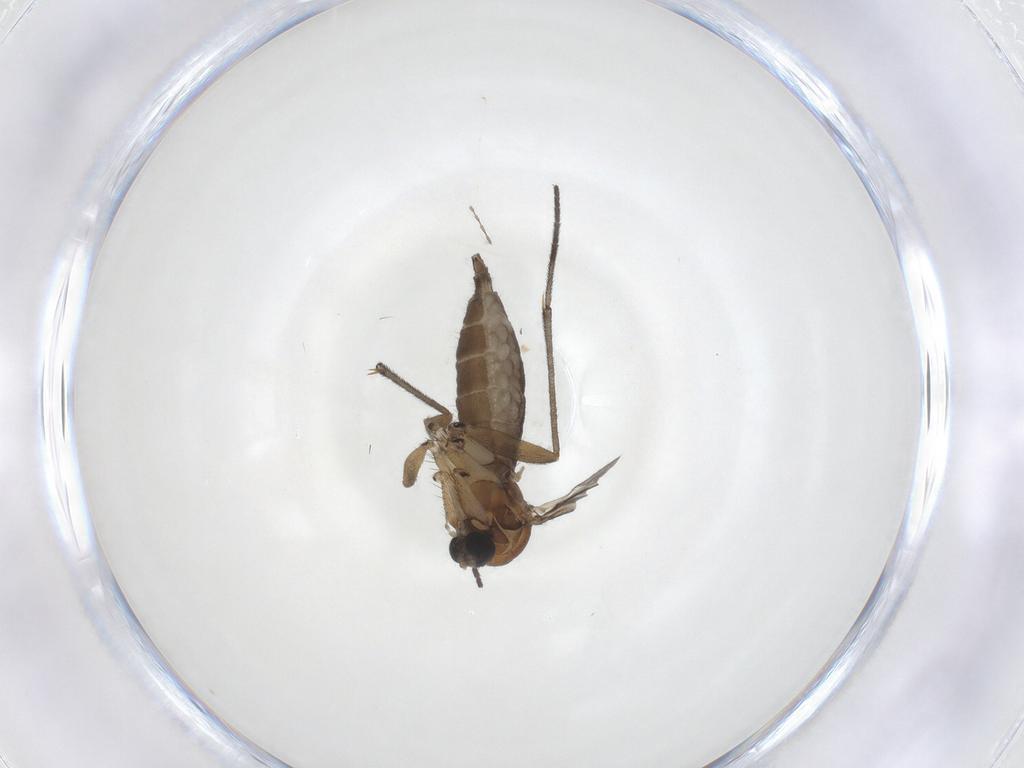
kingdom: Animalia
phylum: Arthropoda
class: Insecta
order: Diptera
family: Sciaridae
